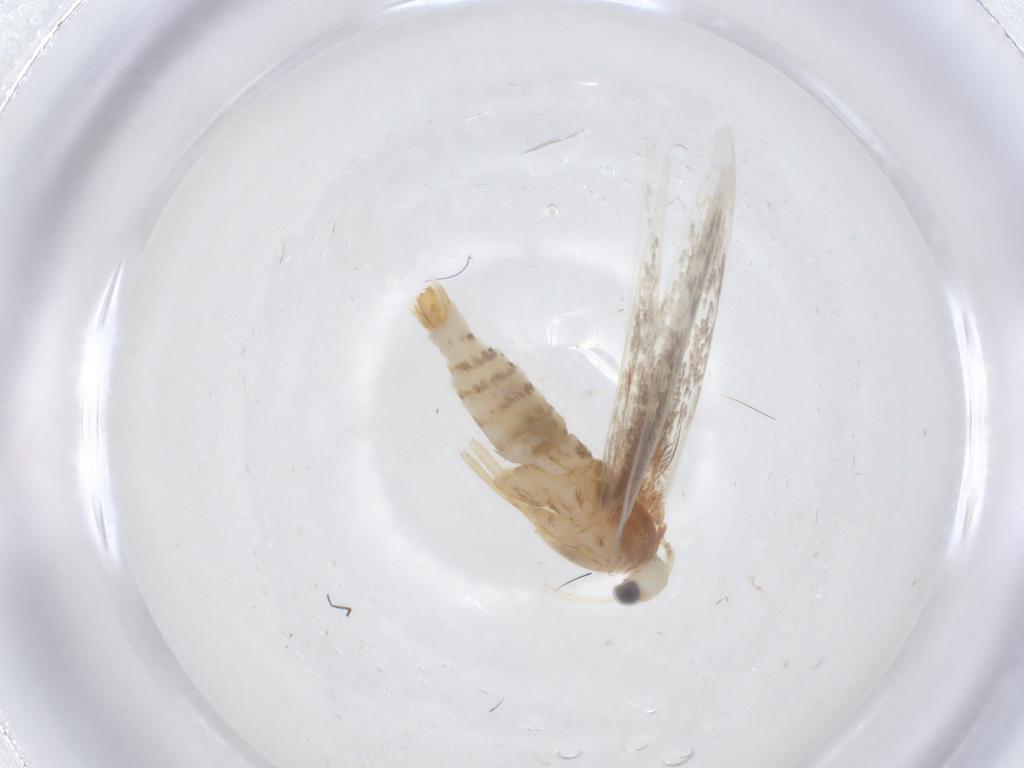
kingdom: Animalia
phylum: Arthropoda
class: Insecta
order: Lepidoptera
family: Gracillariidae
